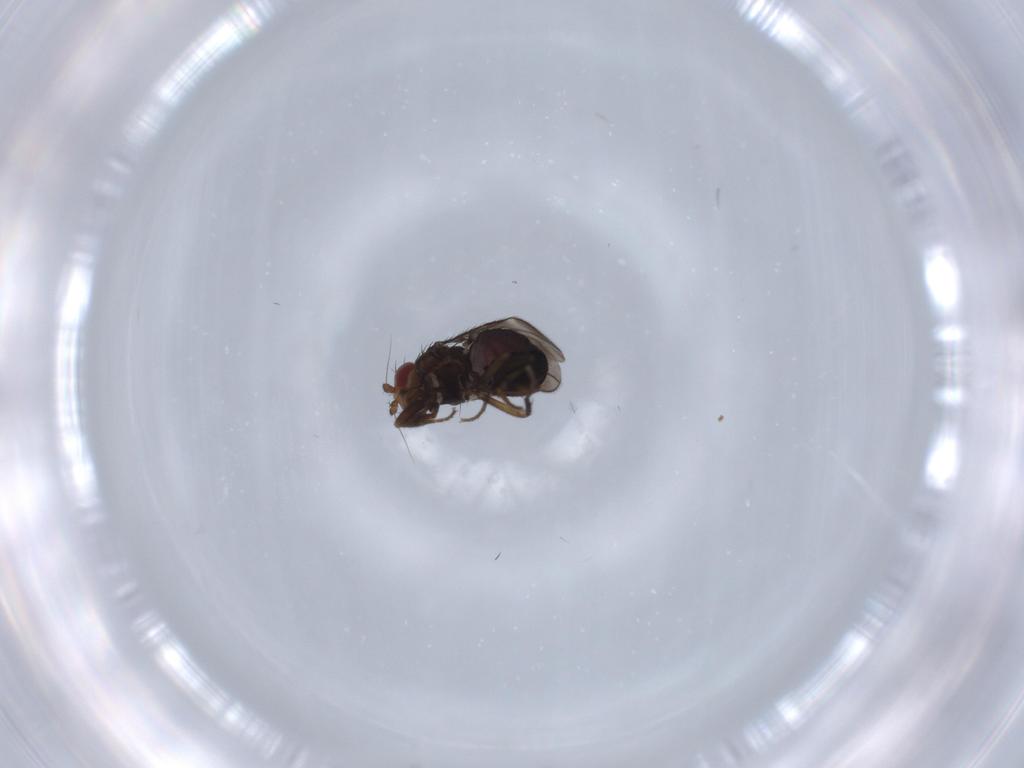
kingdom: Animalia
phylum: Arthropoda
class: Insecta
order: Diptera
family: Sphaeroceridae
